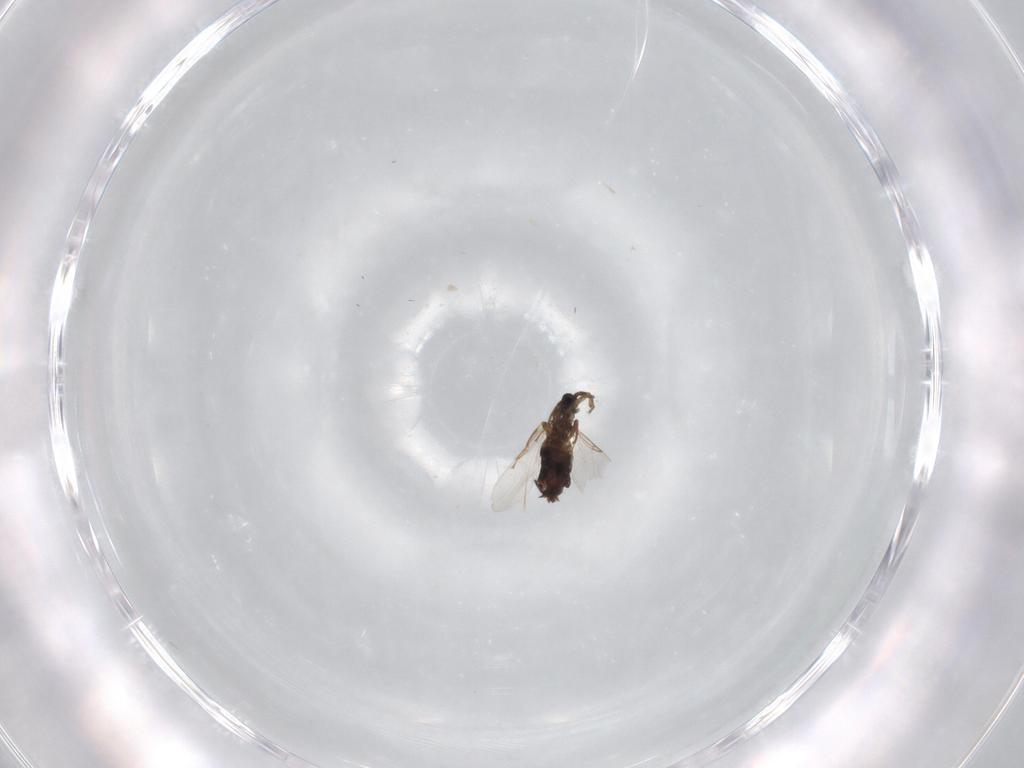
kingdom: Animalia
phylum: Arthropoda
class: Insecta
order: Diptera
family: Scatopsidae
